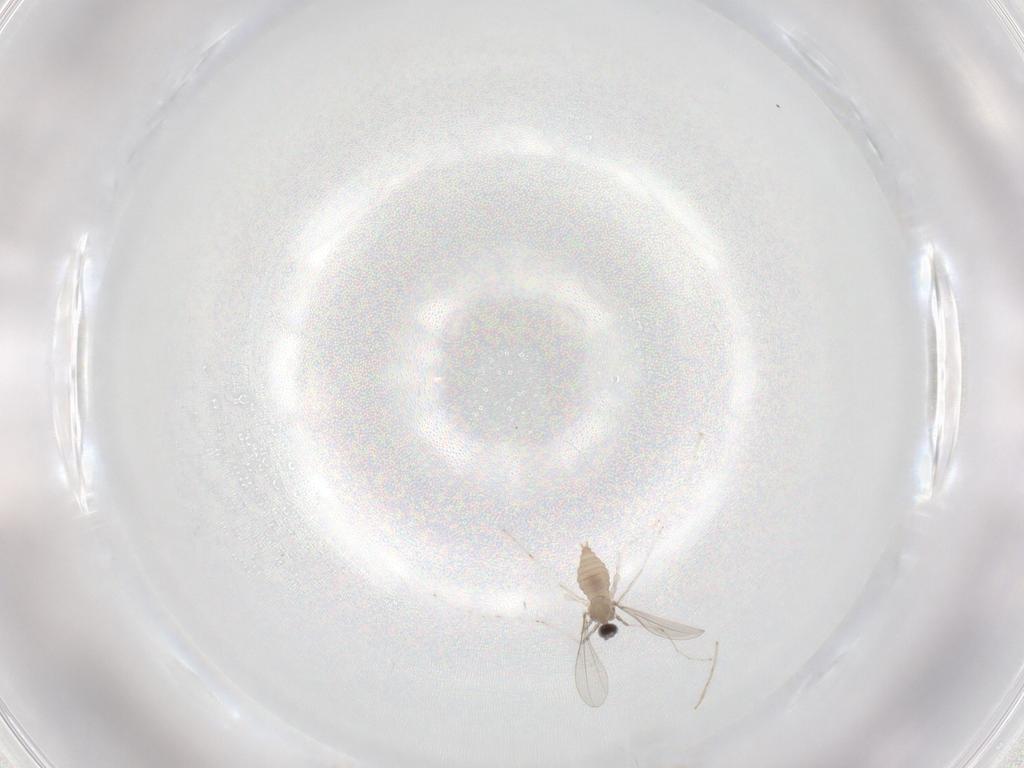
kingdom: Animalia
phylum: Arthropoda
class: Insecta
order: Diptera
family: Cecidomyiidae
